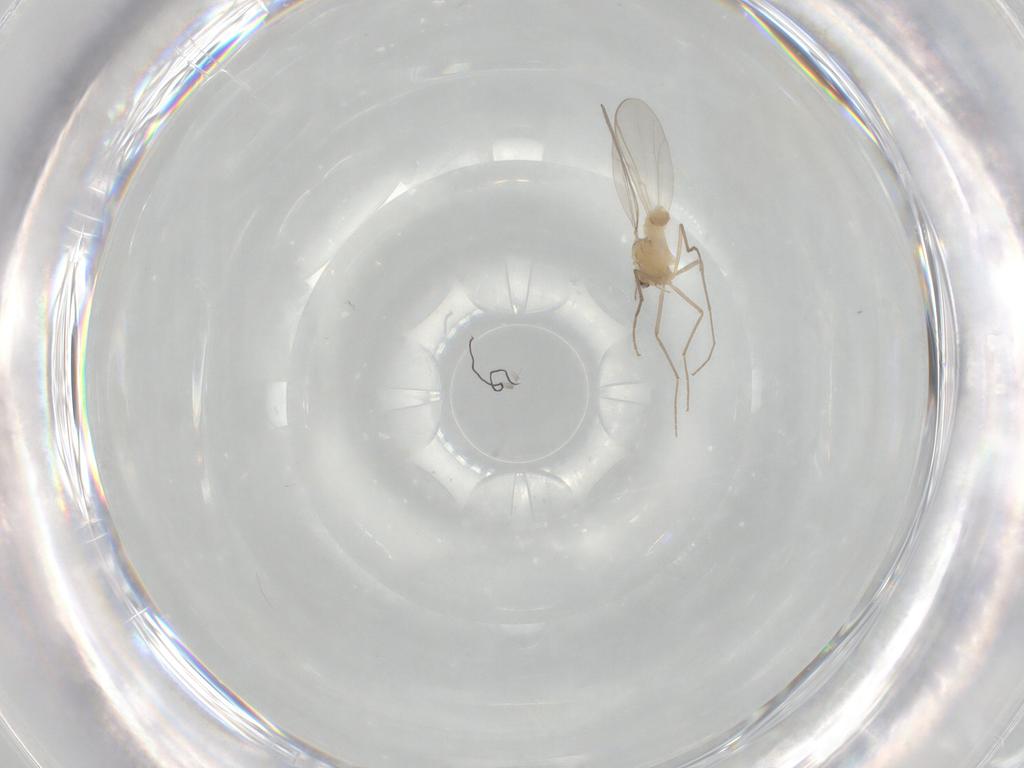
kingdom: Animalia
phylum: Arthropoda
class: Insecta
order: Diptera
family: Chironomidae
